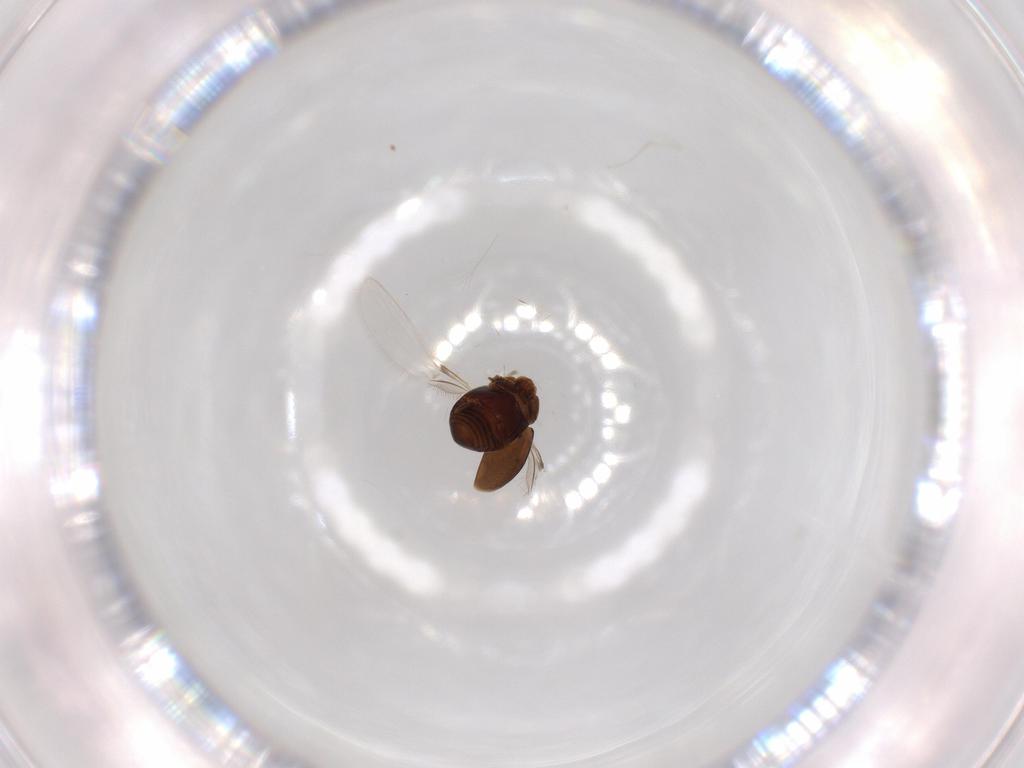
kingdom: Animalia
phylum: Arthropoda
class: Insecta
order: Coleoptera
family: Corylophidae
